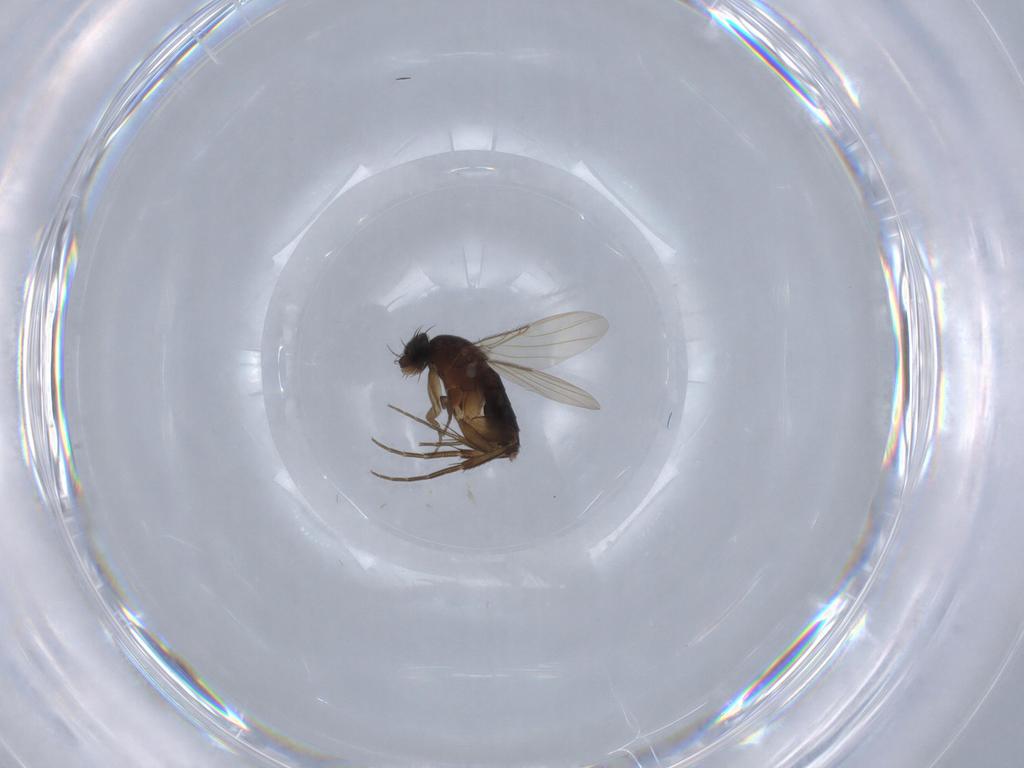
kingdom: Animalia
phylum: Arthropoda
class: Insecta
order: Diptera
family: Phoridae
